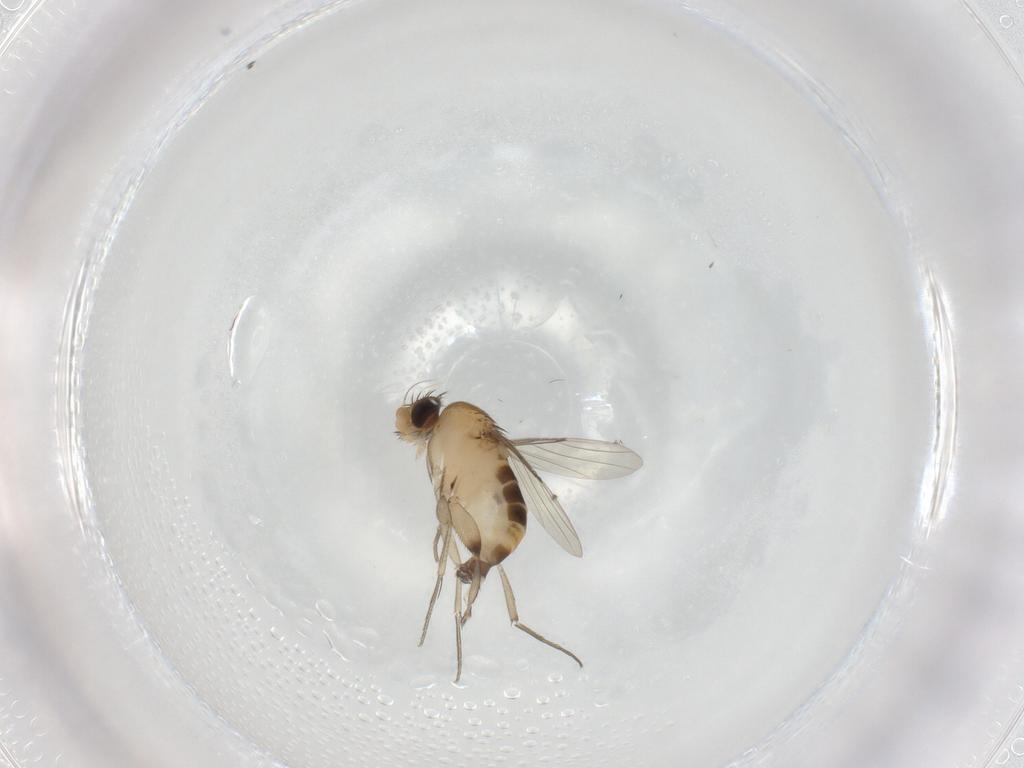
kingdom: Animalia
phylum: Arthropoda
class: Insecta
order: Diptera
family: Phoridae
